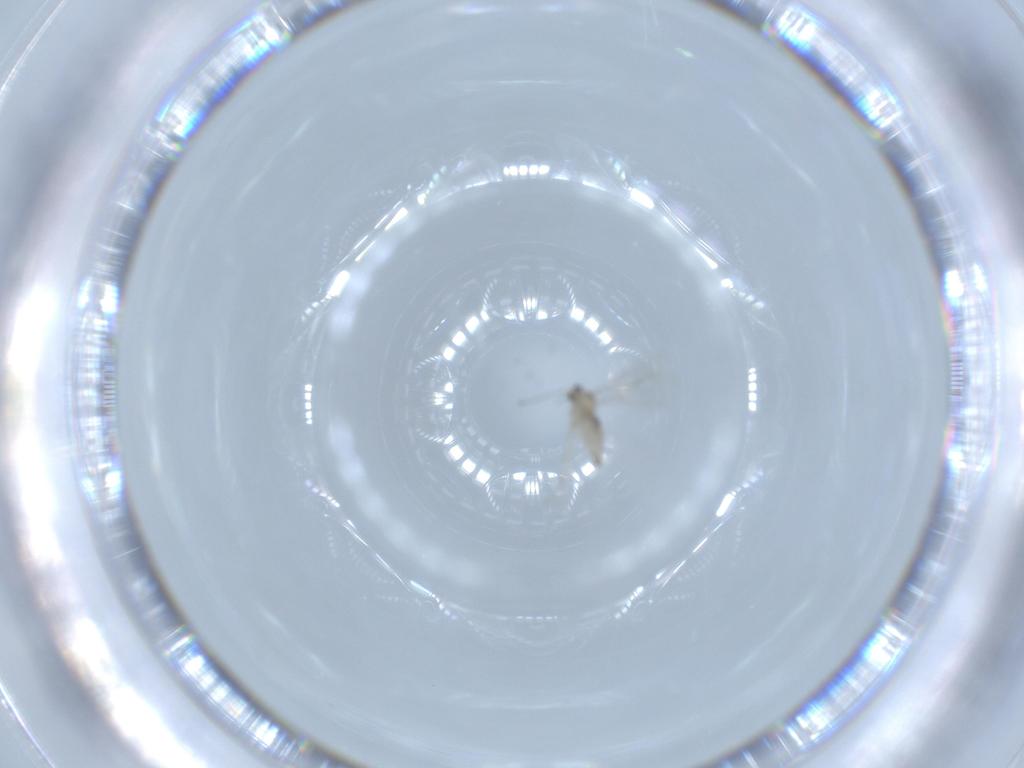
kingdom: Animalia
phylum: Arthropoda
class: Insecta
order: Diptera
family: Cecidomyiidae
